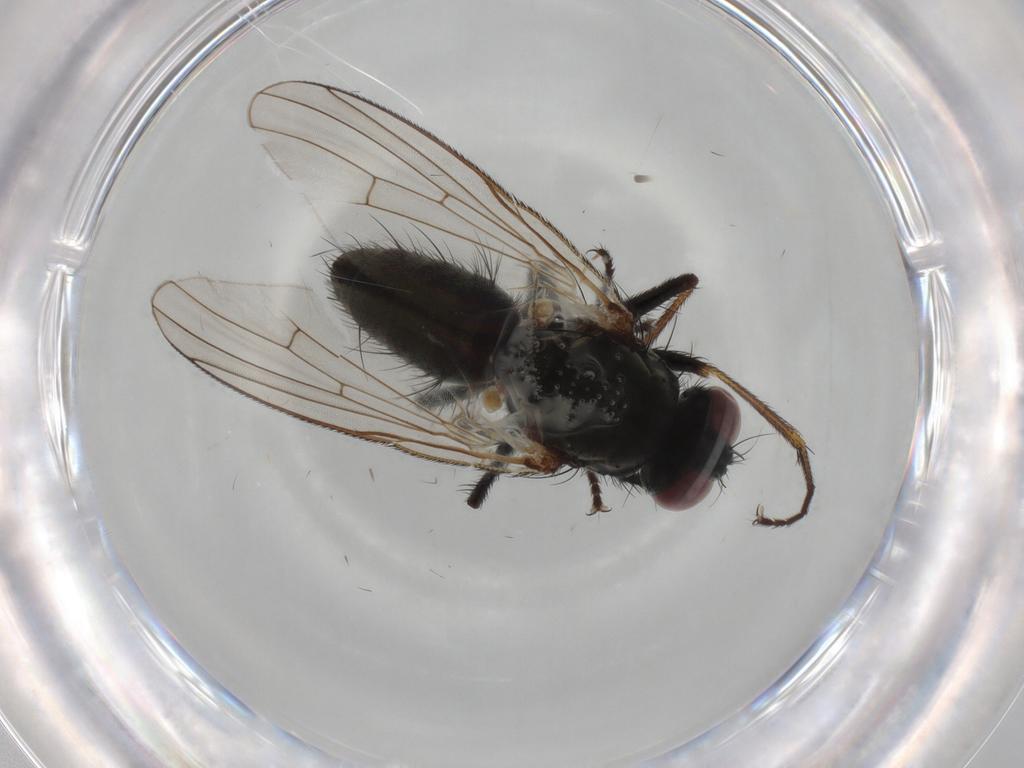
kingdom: Animalia
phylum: Arthropoda
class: Insecta
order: Diptera
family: Muscidae
